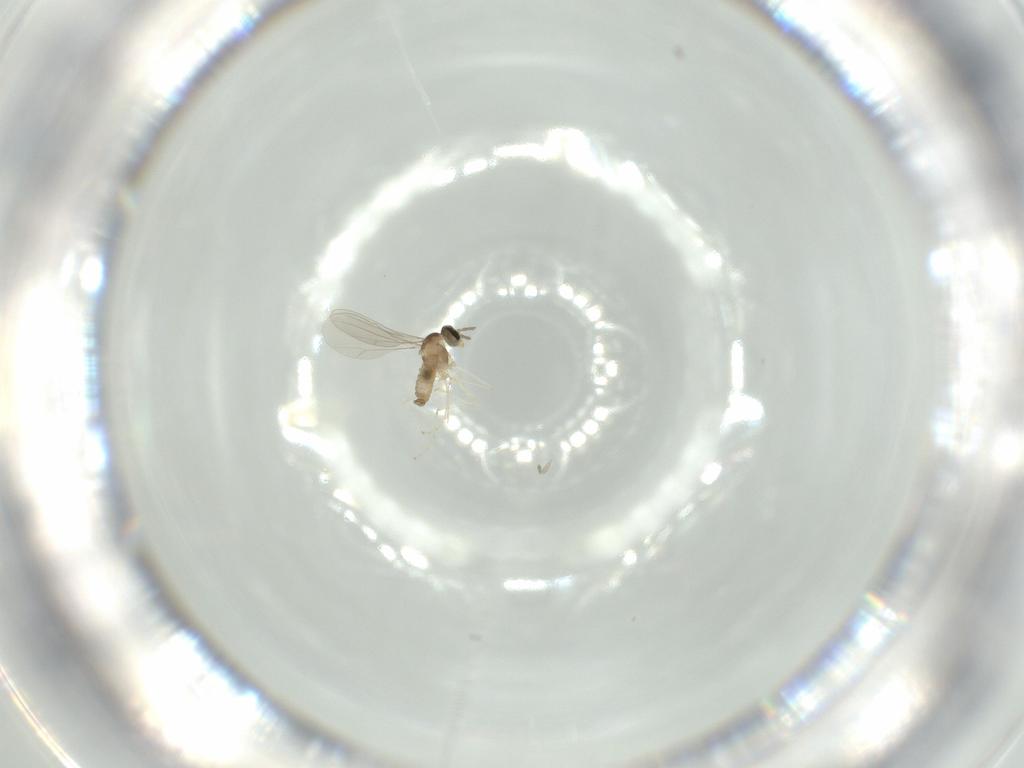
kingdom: Animalia
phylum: Arthropoda
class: Insecta
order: Diptera
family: Cecidomyiidae
